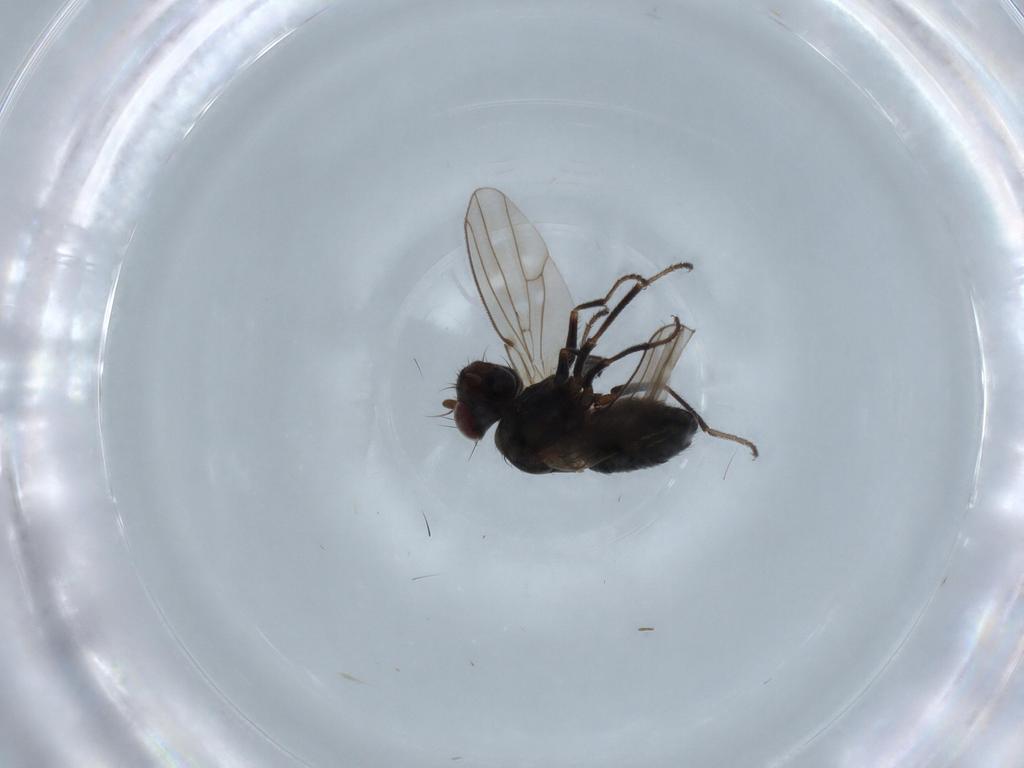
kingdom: Animalia
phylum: Arthropoda
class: Insecta
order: Diptera
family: Ephydridae
